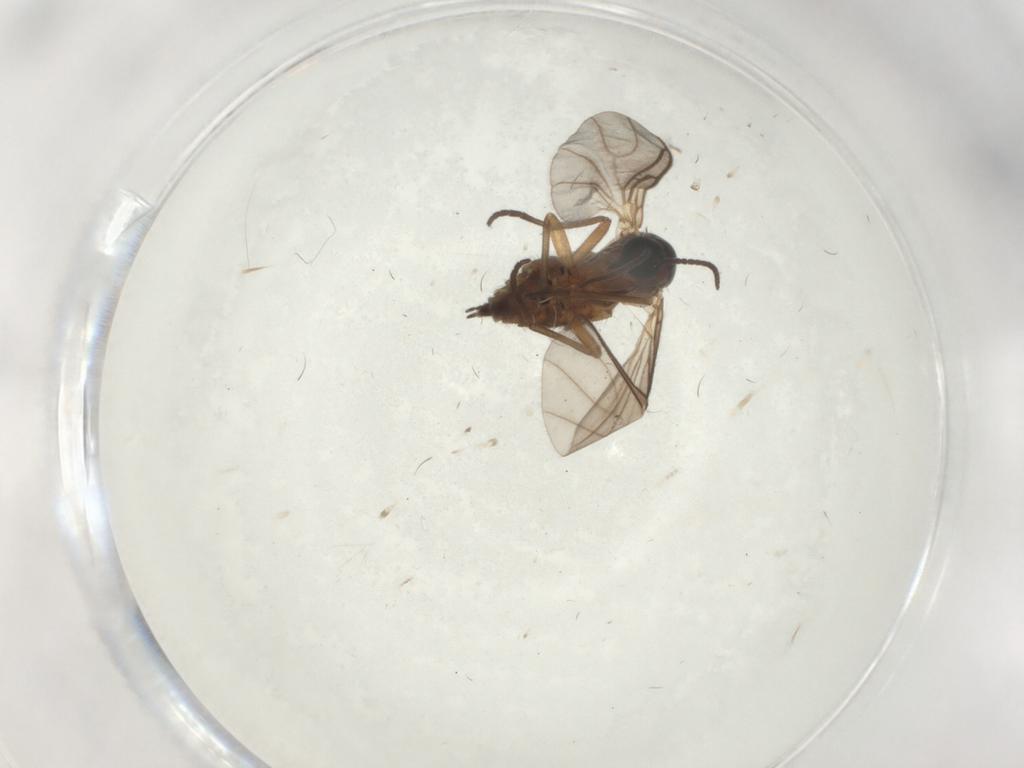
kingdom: Animalia
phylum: Arthropoda
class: Insecta
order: Diptera
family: Sciaridae
